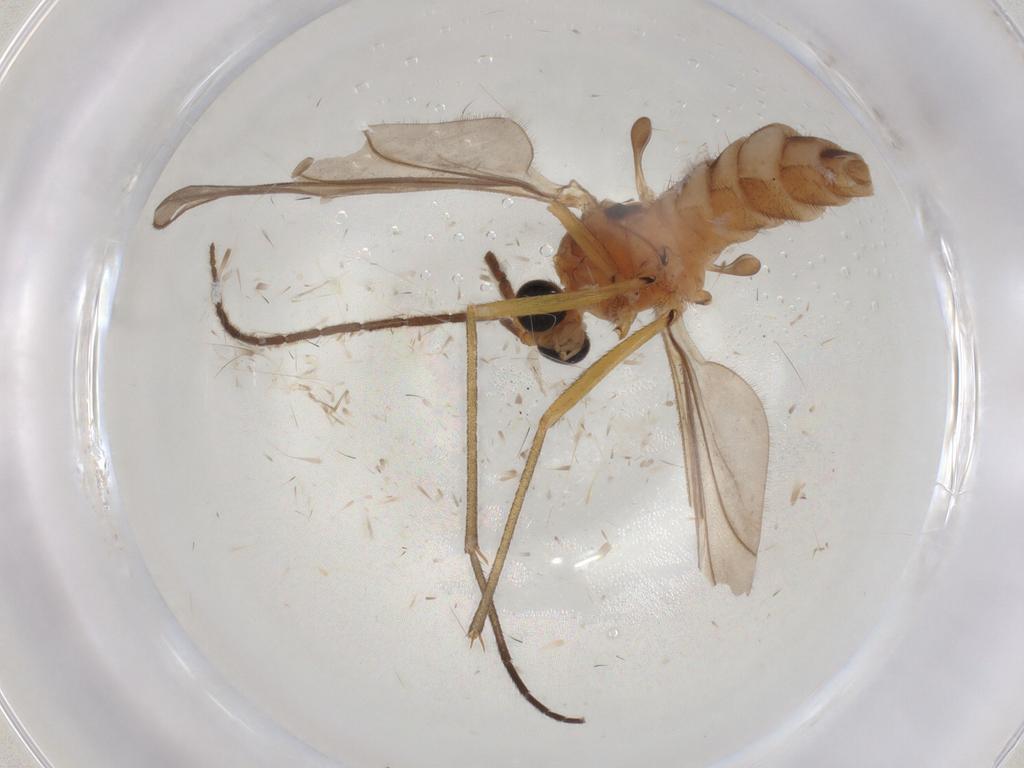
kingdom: Animalia
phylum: Arthropoda
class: Insecta
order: Diptera
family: Sciaridae
